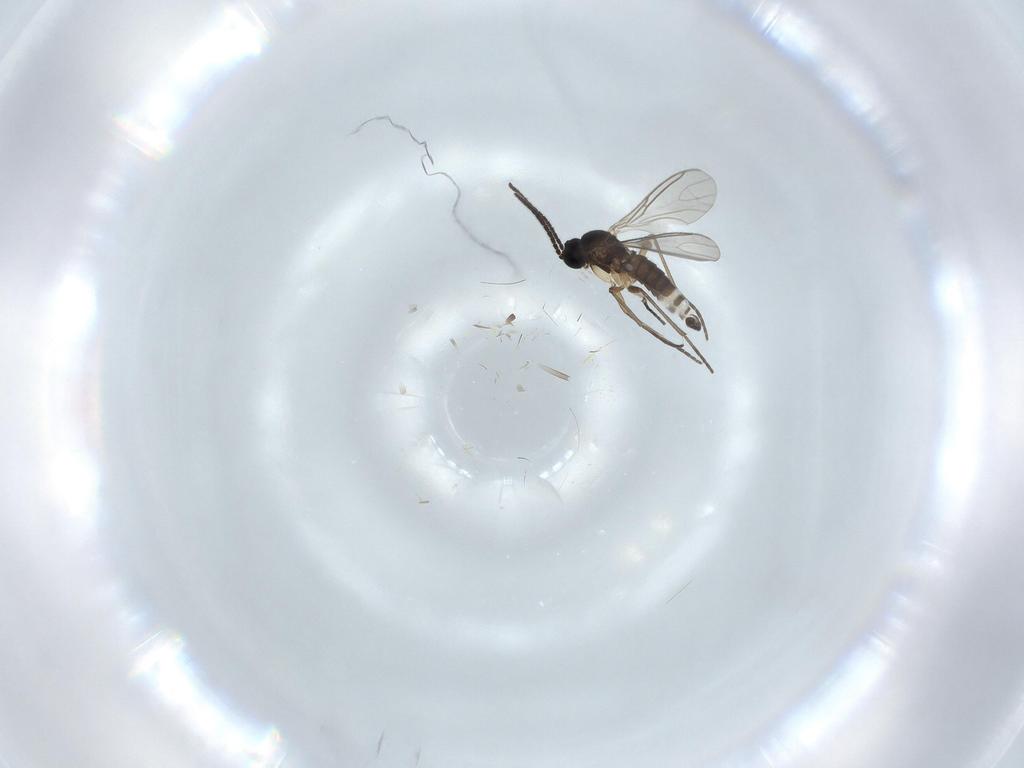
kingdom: Animalia
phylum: Arthropoda
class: Insecta
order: Diptera
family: Sciaridae
